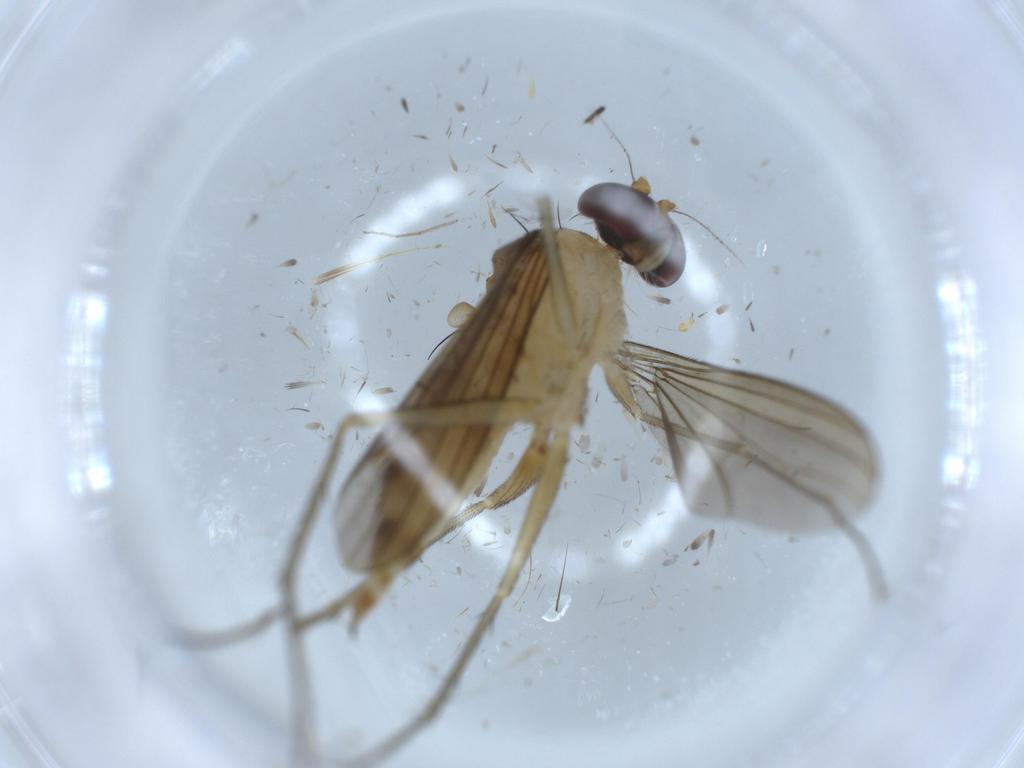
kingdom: Animalia
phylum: Arthropoda
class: Insecta
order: Diptera
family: Dolichopodidae
